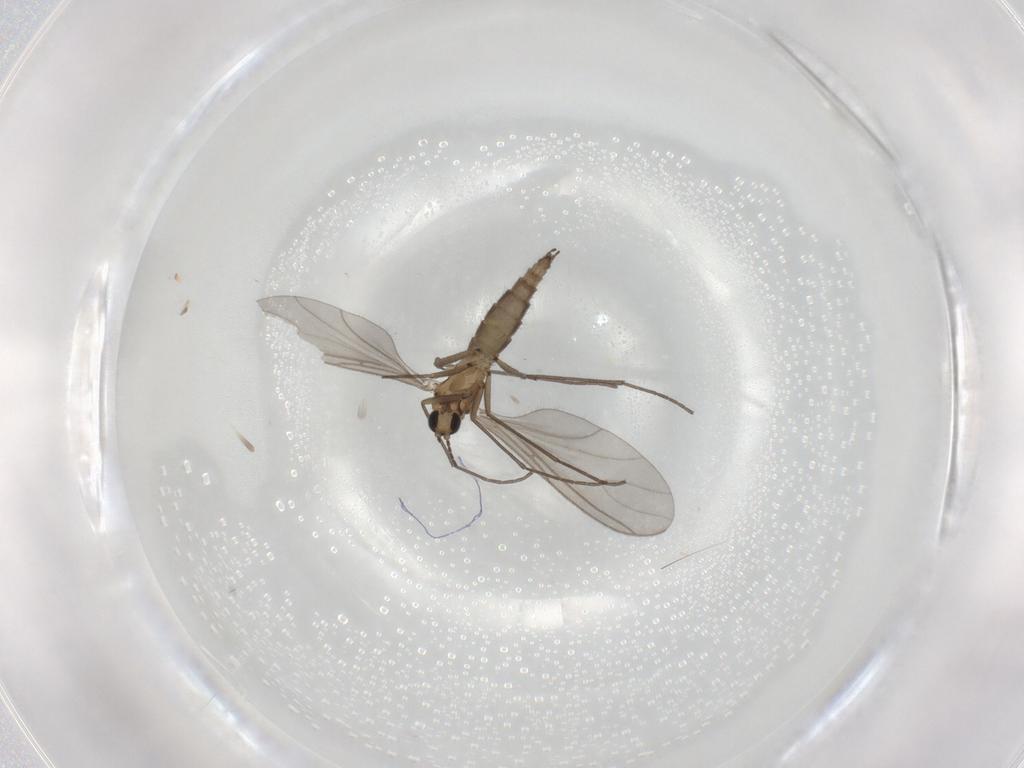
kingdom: Animalia
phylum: Arthropoda
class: Insecta
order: Diptera
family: Sciaridae
